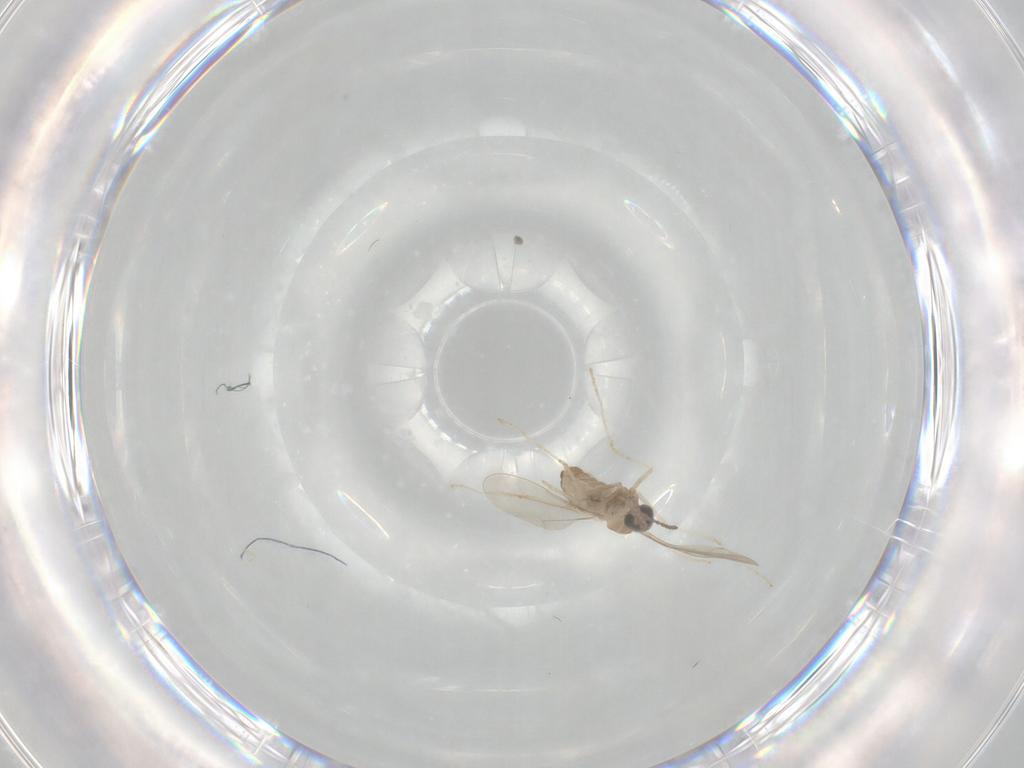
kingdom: Animalia
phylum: Arthropoda
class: Insecta
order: Diptera
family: Cecidomyiidae
